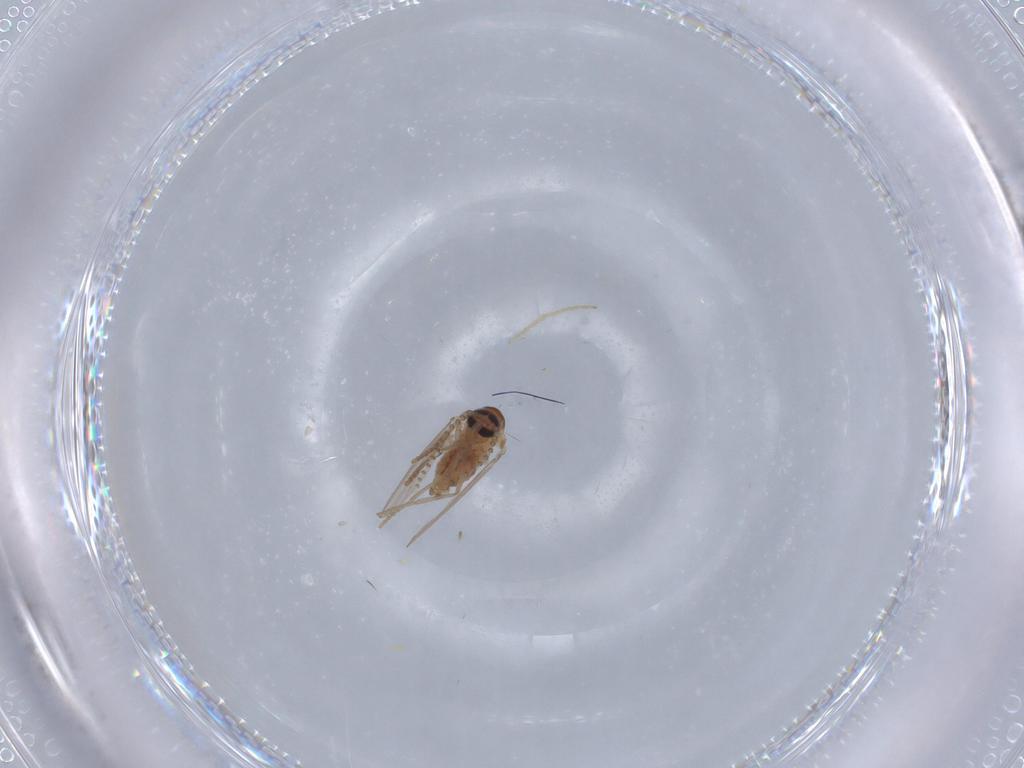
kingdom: Animalia
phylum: Arthropoda
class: Insecta
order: Diptera
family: Psychodidae
